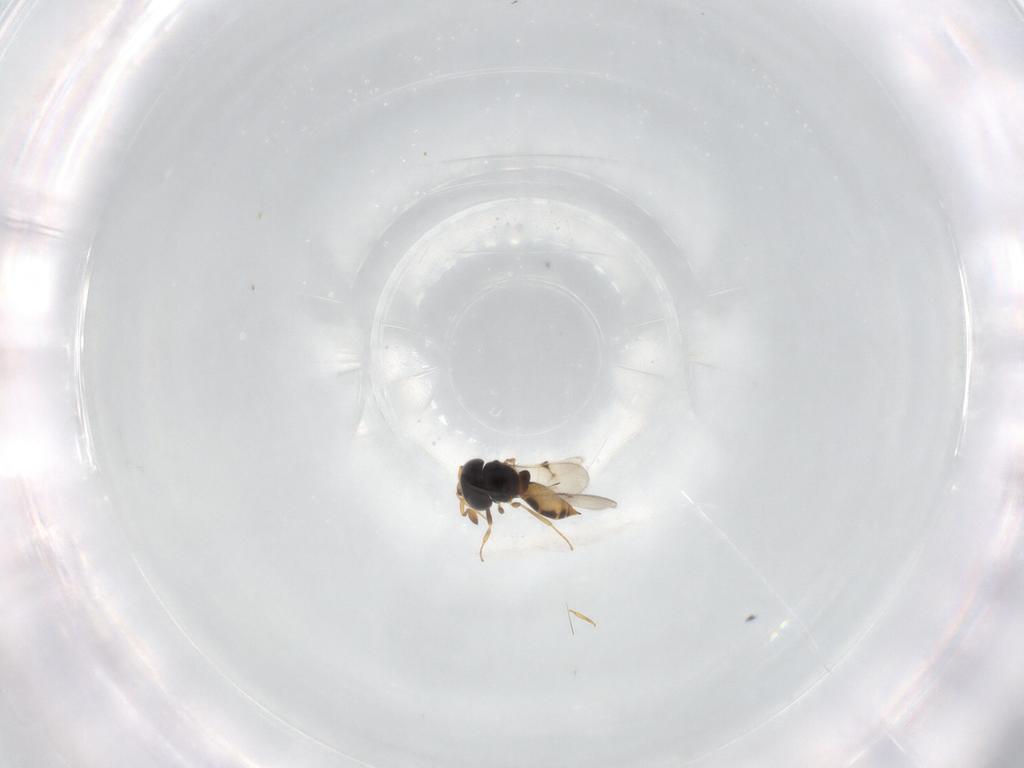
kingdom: Animalia
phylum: Arthropoda
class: Insecta
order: Hymenoptera
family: Scelionidae
